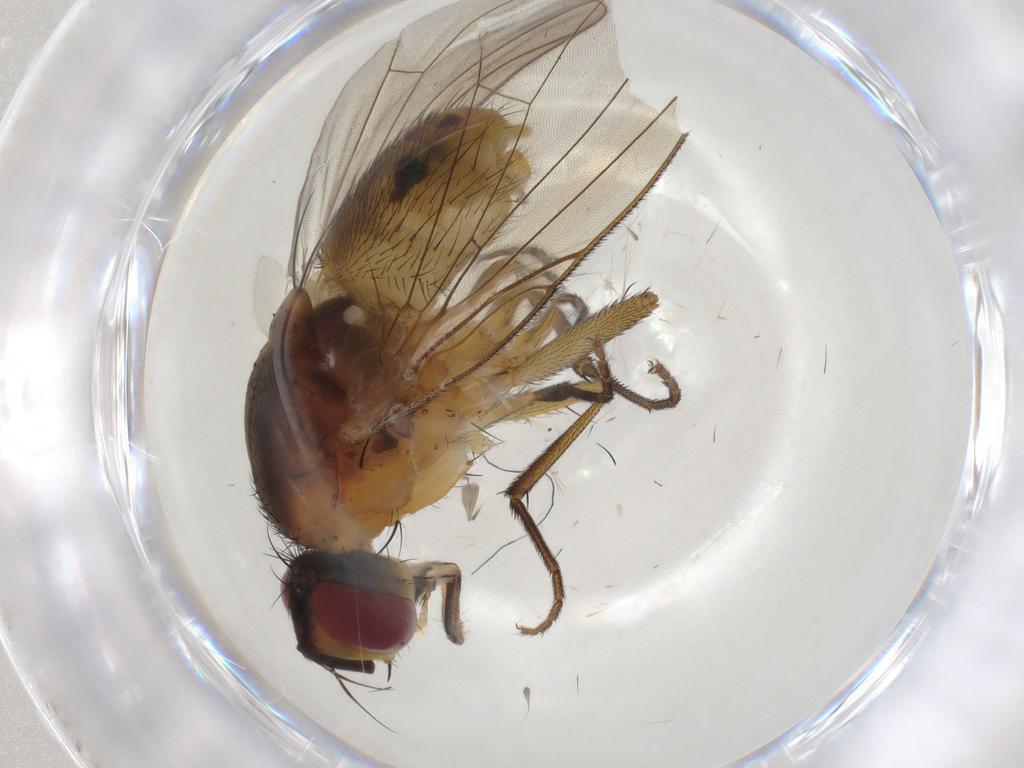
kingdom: Animalia
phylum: Arthropoda
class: Insecta
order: Diptera
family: Muscidae
